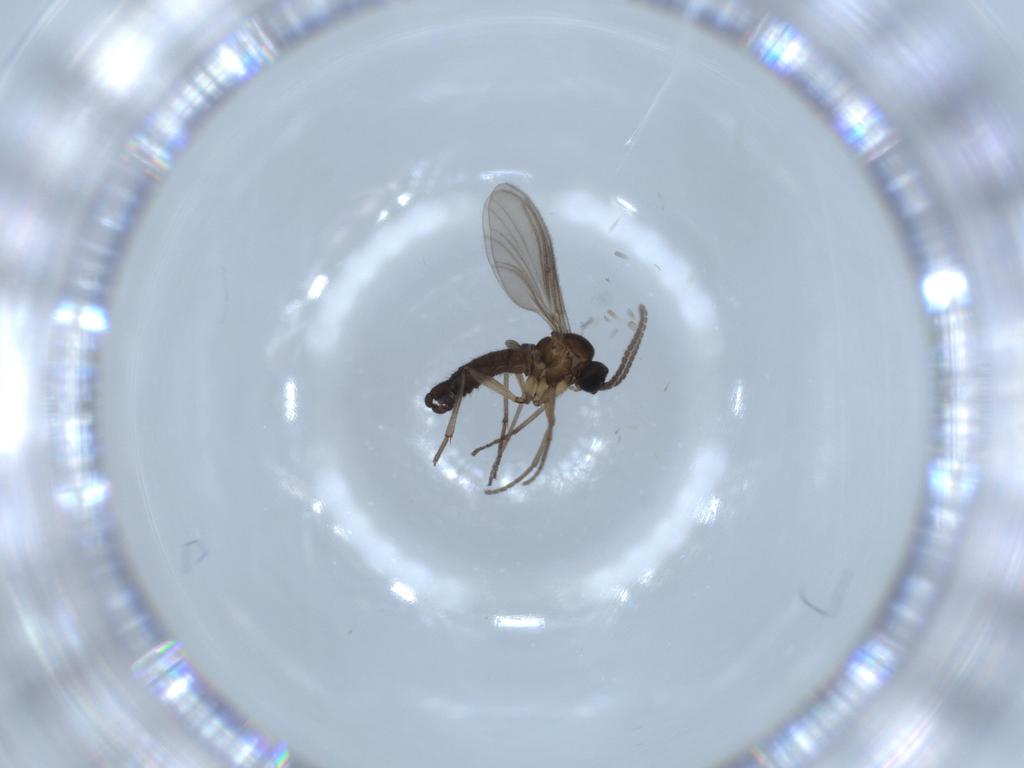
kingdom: Animalia
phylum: Arthropoda
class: Insecta
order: Diptera
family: Sciaridae
